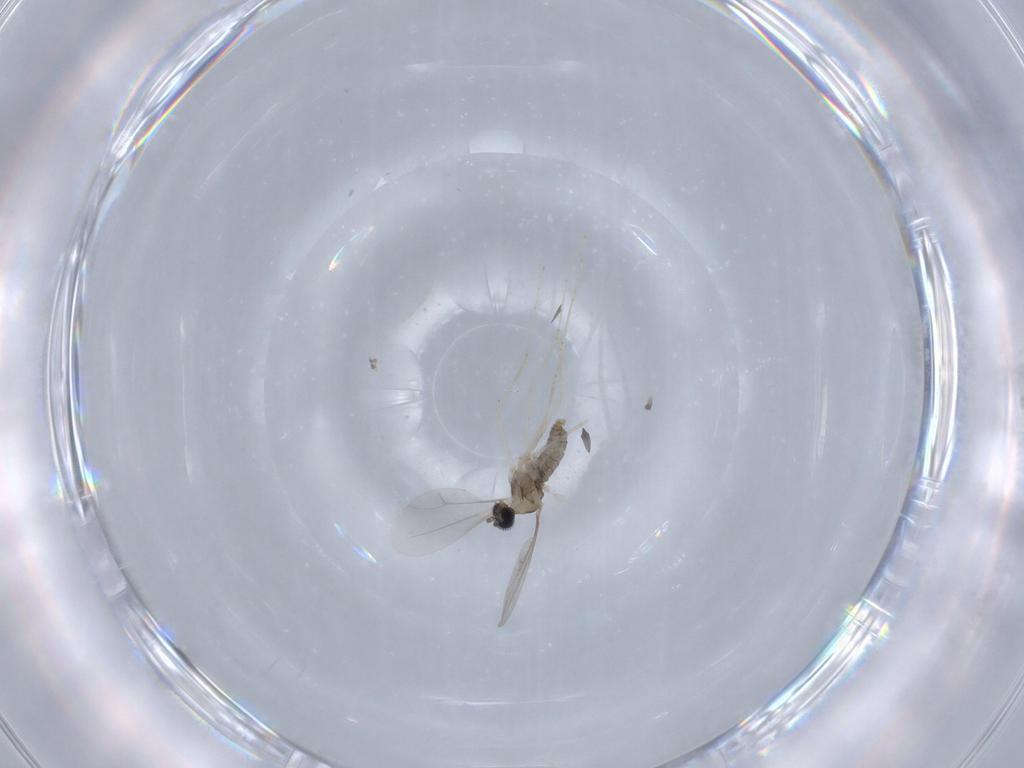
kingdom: Animalia
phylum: Arthropoda
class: Insecta
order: Diptera
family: Cecidomyiidae
